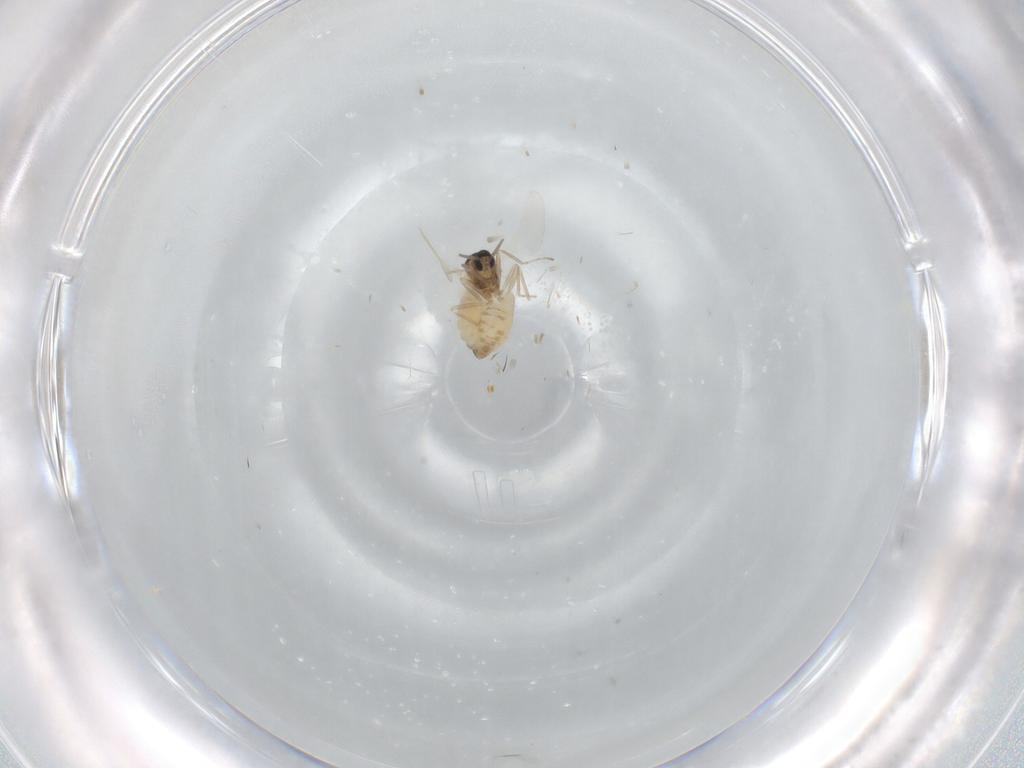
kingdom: Animalia
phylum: Arthropoda
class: Insecta
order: Diptera
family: Cecidomyiidae
